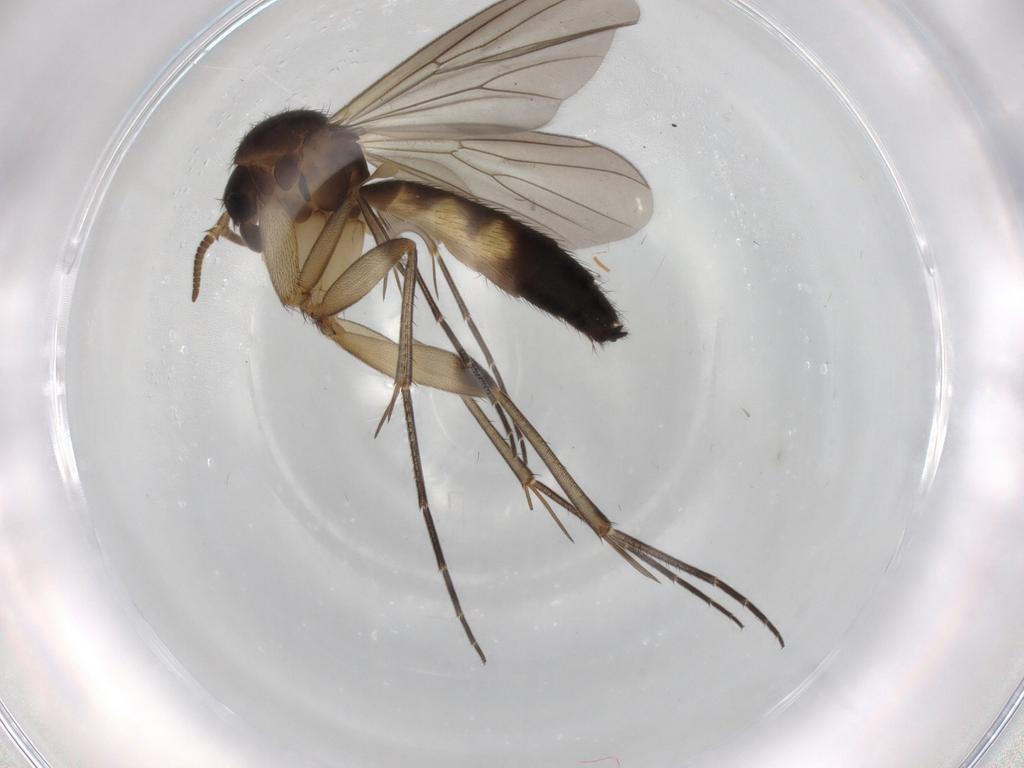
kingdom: Animalia
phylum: Arthropoda
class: Insecta
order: Diptera
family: Mycetophilidae
